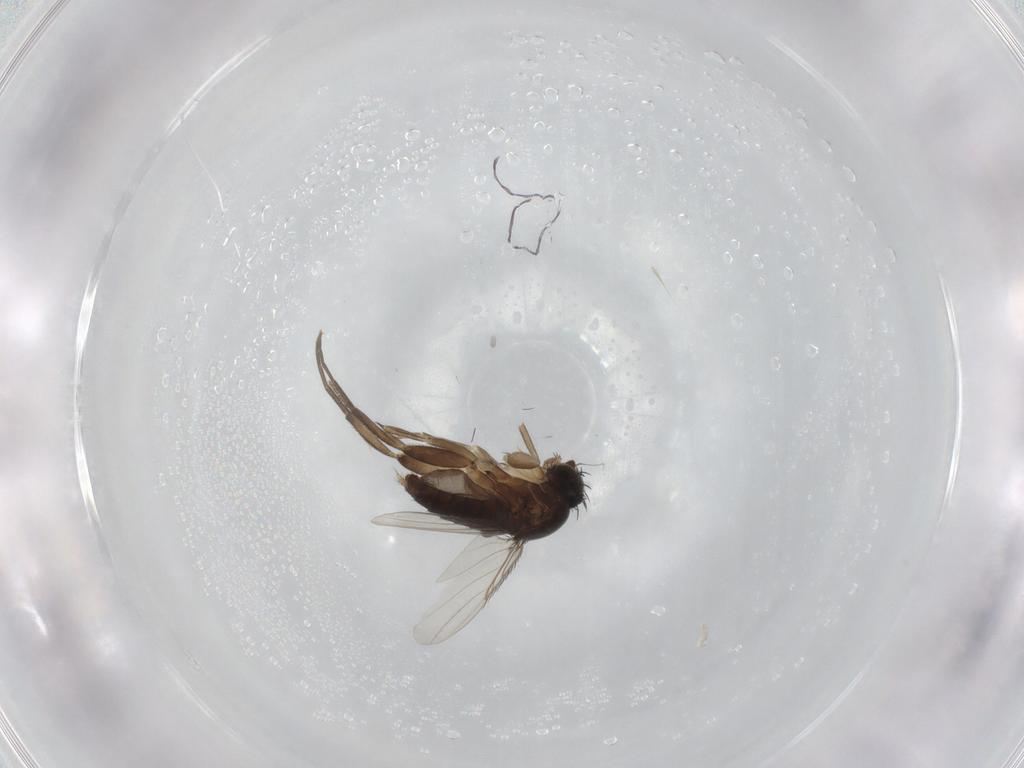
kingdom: Animalia
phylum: Arthropoda
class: Insecta
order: Diptera
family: Phoridae
